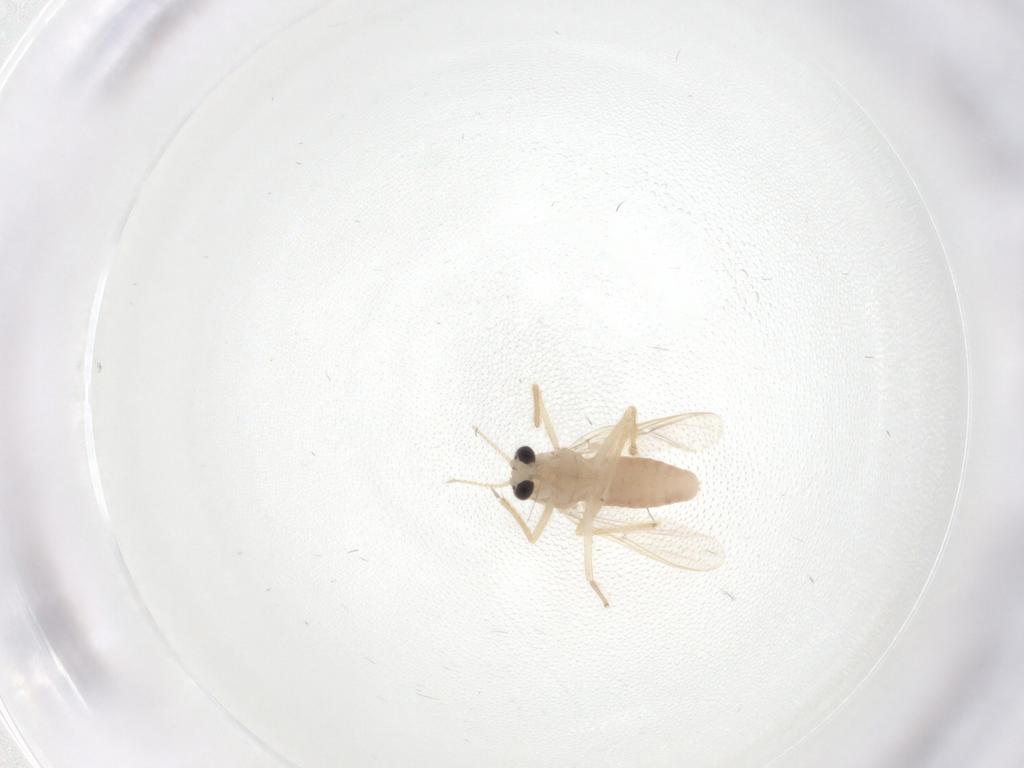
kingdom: Animalia
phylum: Arthropoda
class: Insecta
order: Diptera
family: Chironomidae
